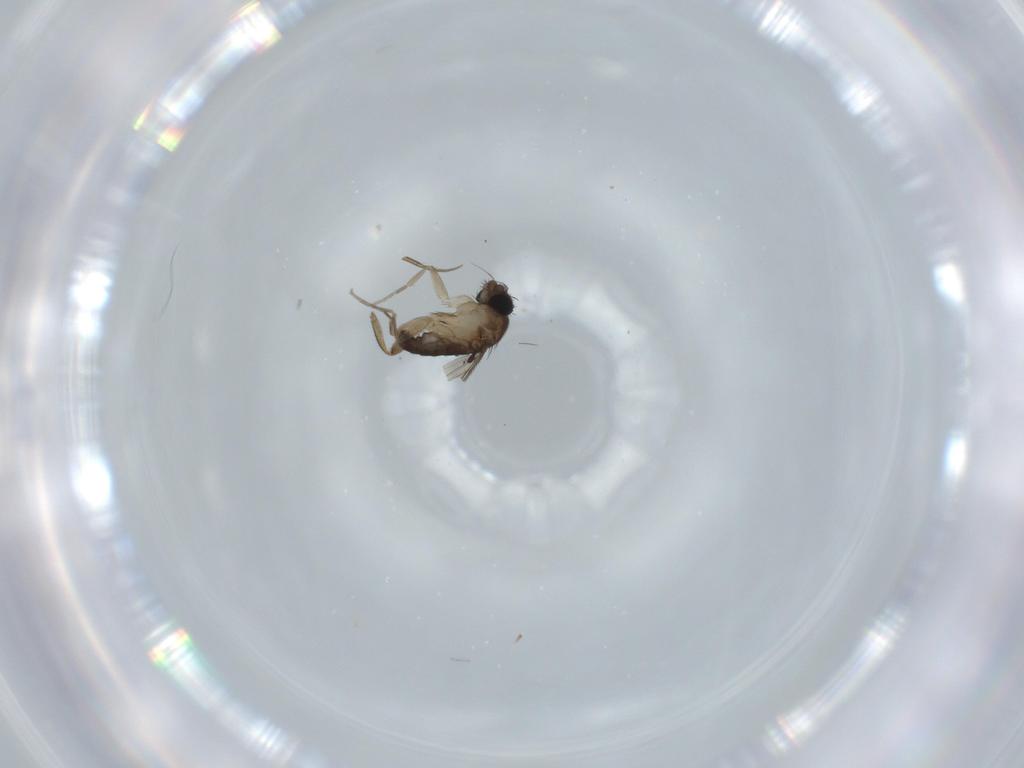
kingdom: Animalia
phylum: Arthropoda
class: Insecta
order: Diptera
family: Phoridae
